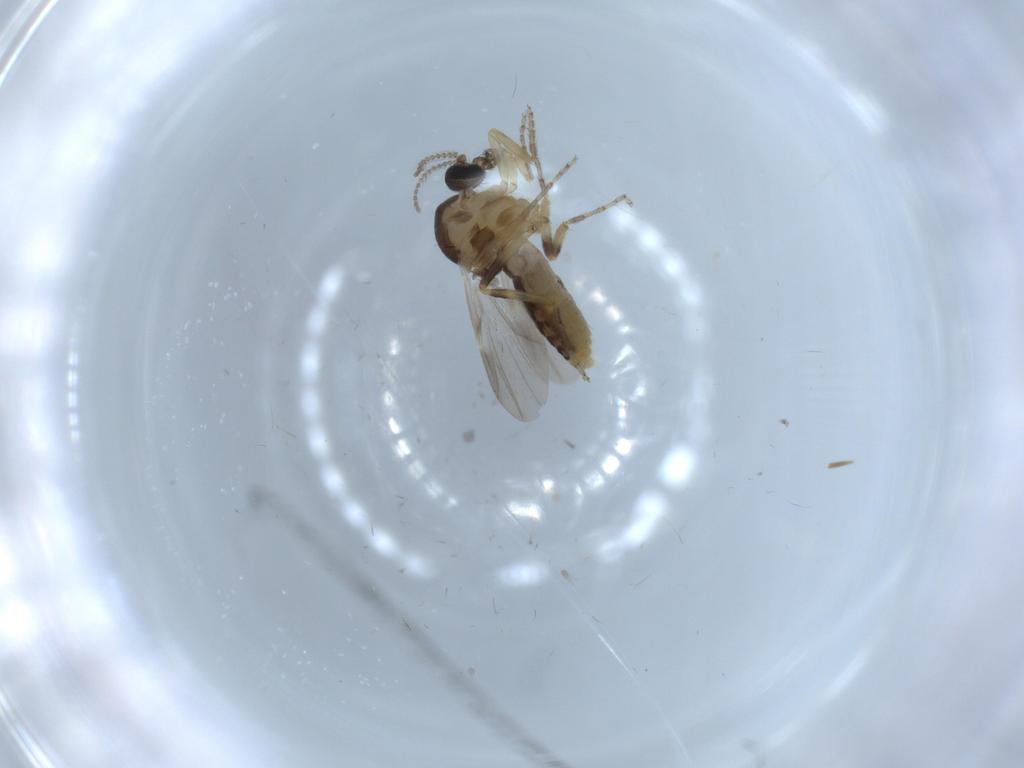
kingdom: Animalia
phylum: Arthropoda
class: Insecta
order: Diptera
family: Ceratopogonidae
